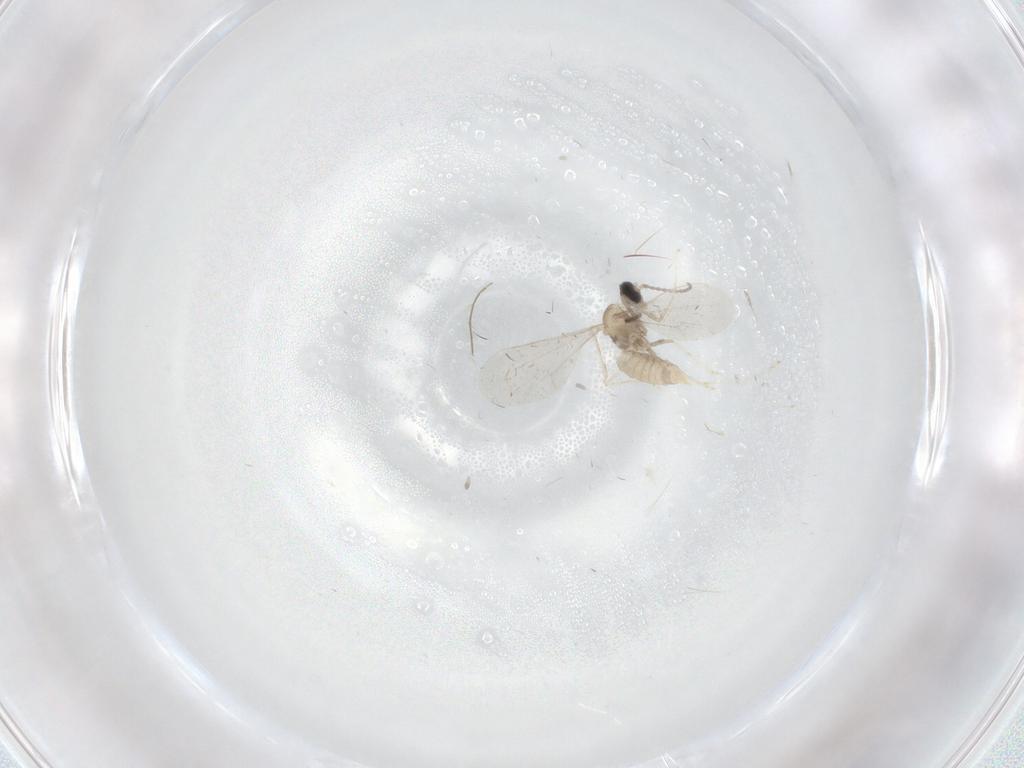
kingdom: Animalia
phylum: Arthropoda
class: Insecta
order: Diptera
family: Cecidomyiidae
